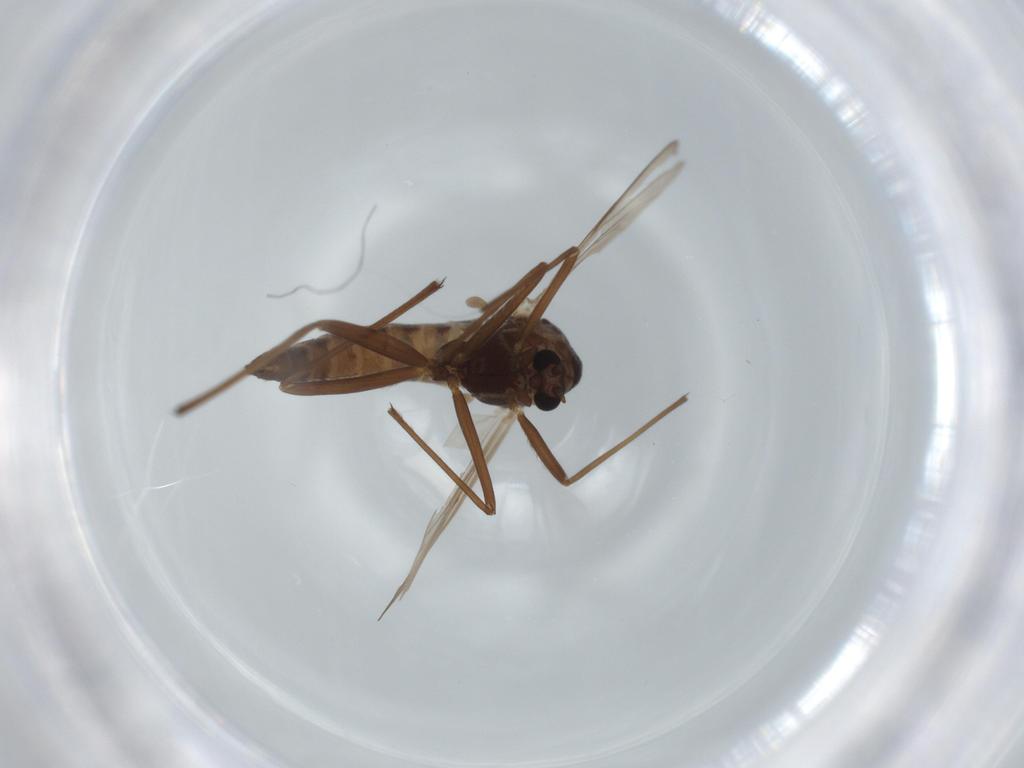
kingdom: Animalia
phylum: Arthropoda
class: Insecta
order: Diptera
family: Chironomidae
